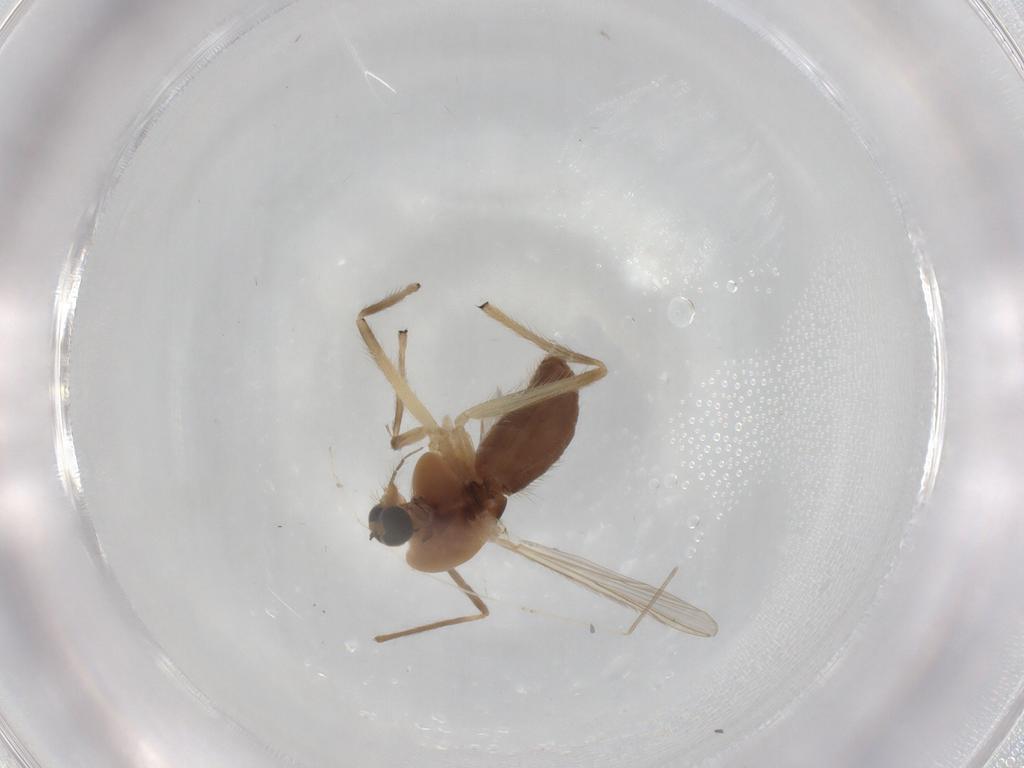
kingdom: Animalia
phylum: Arthropoda
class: Insecta
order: Diptera
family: Chironomidae
